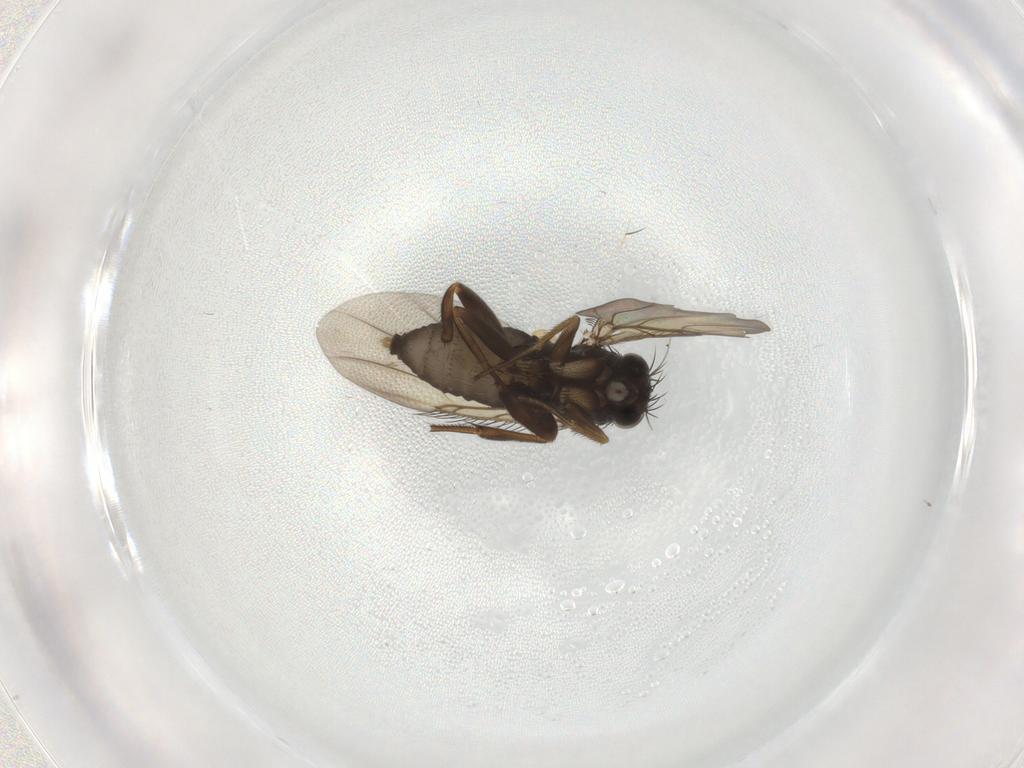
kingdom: Animalia
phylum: Arthropoda
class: Insecta
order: Diptera
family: Phoridae
